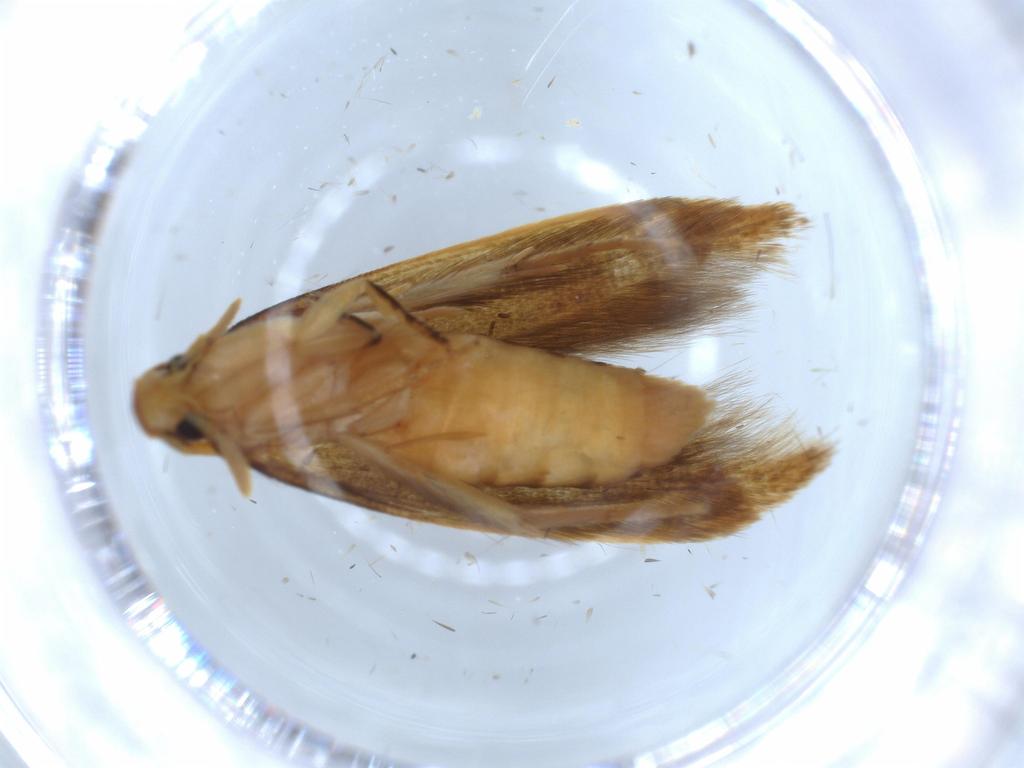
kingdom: Animalia
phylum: Arthropoda
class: Insecta
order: Lepidoptera
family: Tineidae
